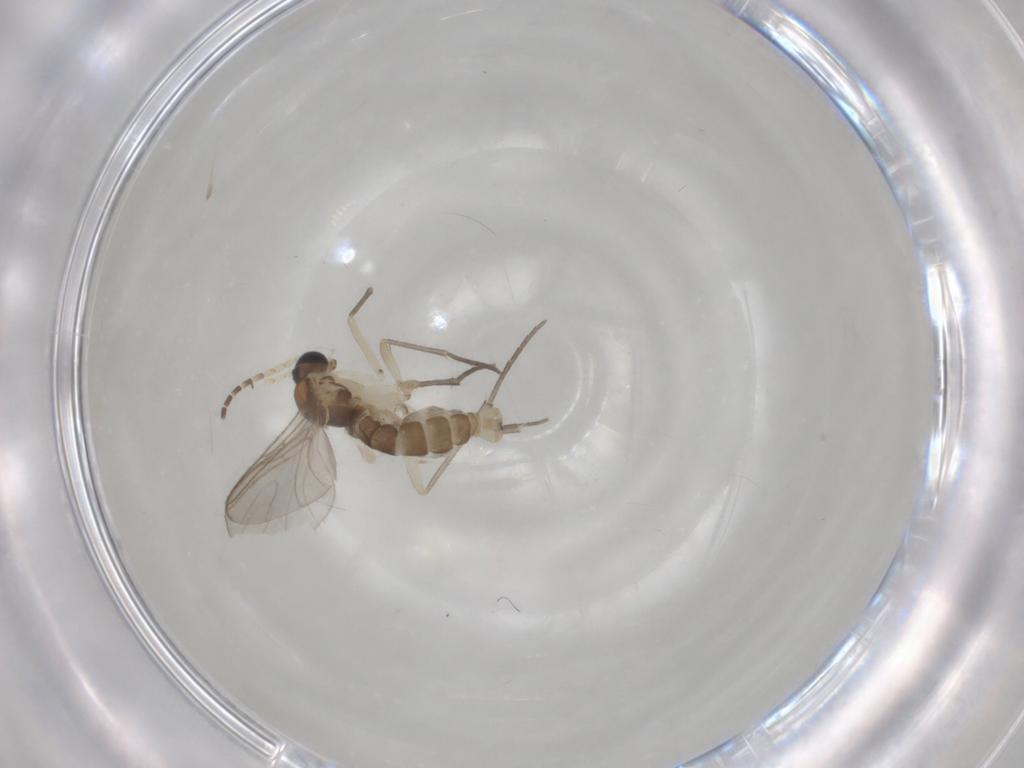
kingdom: Animalia
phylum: Arthropoda
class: Insecta
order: Diptera
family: Sciaridae
